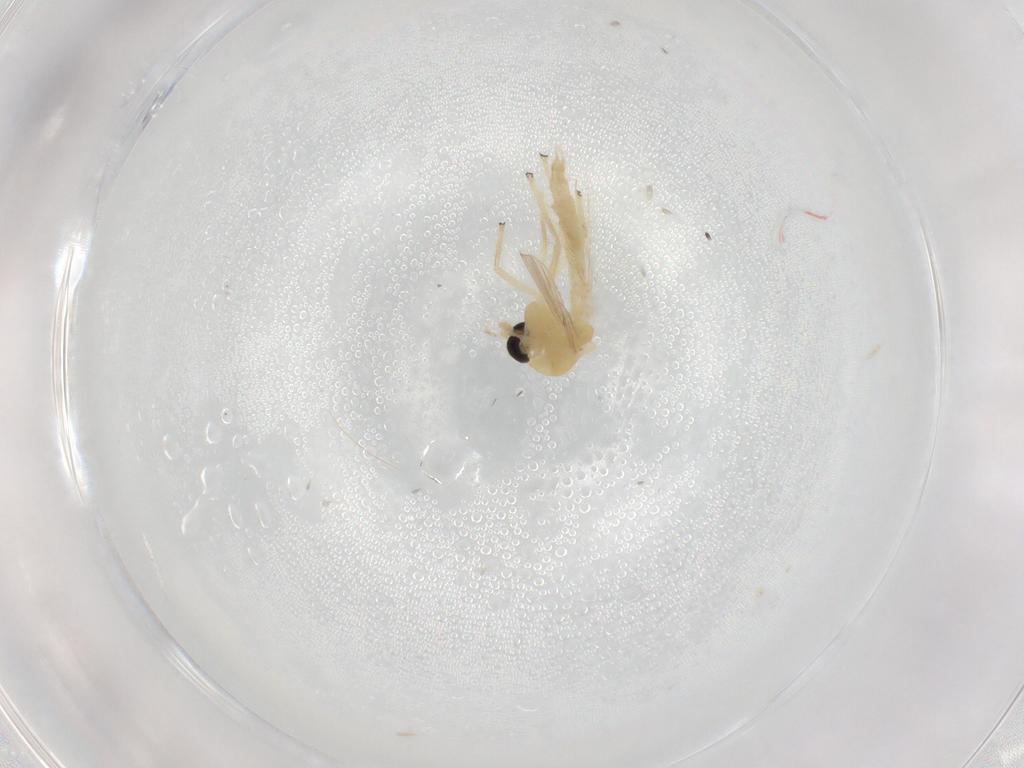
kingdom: Animalia
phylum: Arthropoda
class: Insecta
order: Diptera
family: Chironomidae
